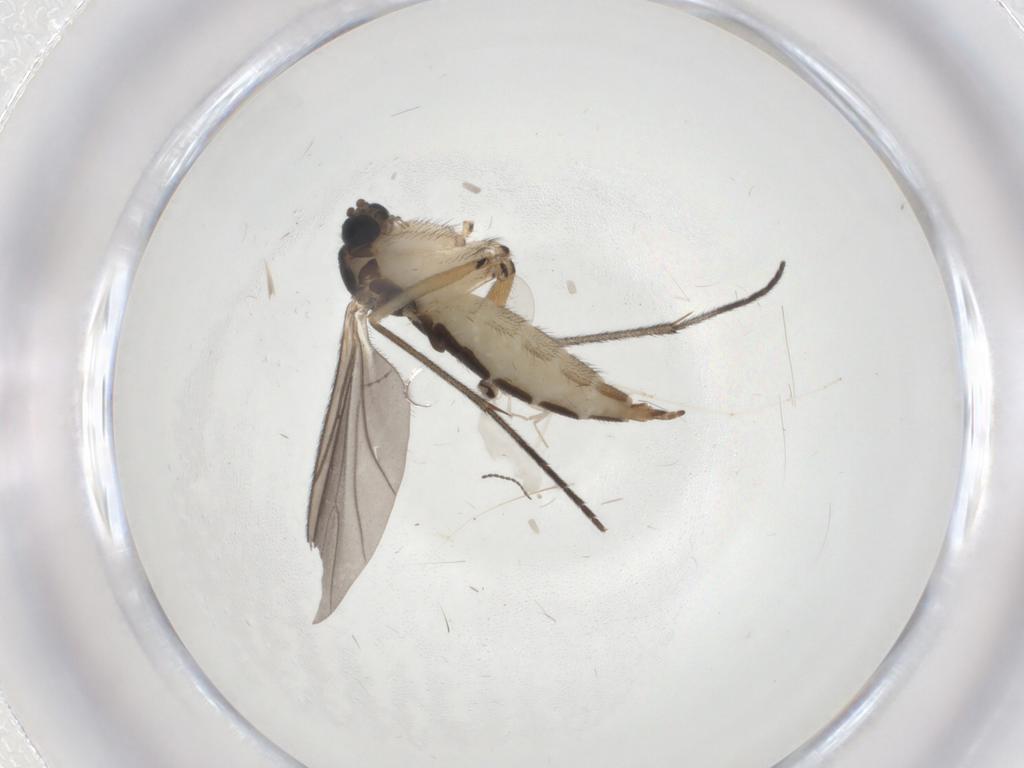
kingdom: Animalia
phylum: Arthropoda
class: Insecta
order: Diptera
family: Sciaridae
